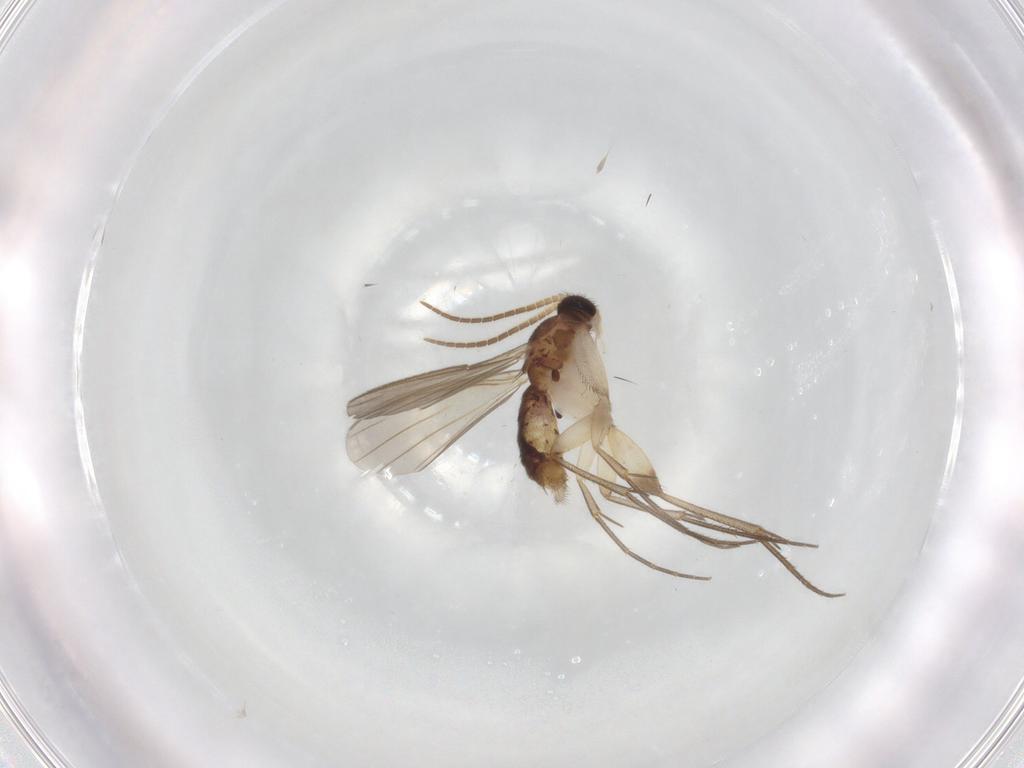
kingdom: Animalia
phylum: Arthropoda
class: Insecta
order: Diptera
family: Mycetophilidae
